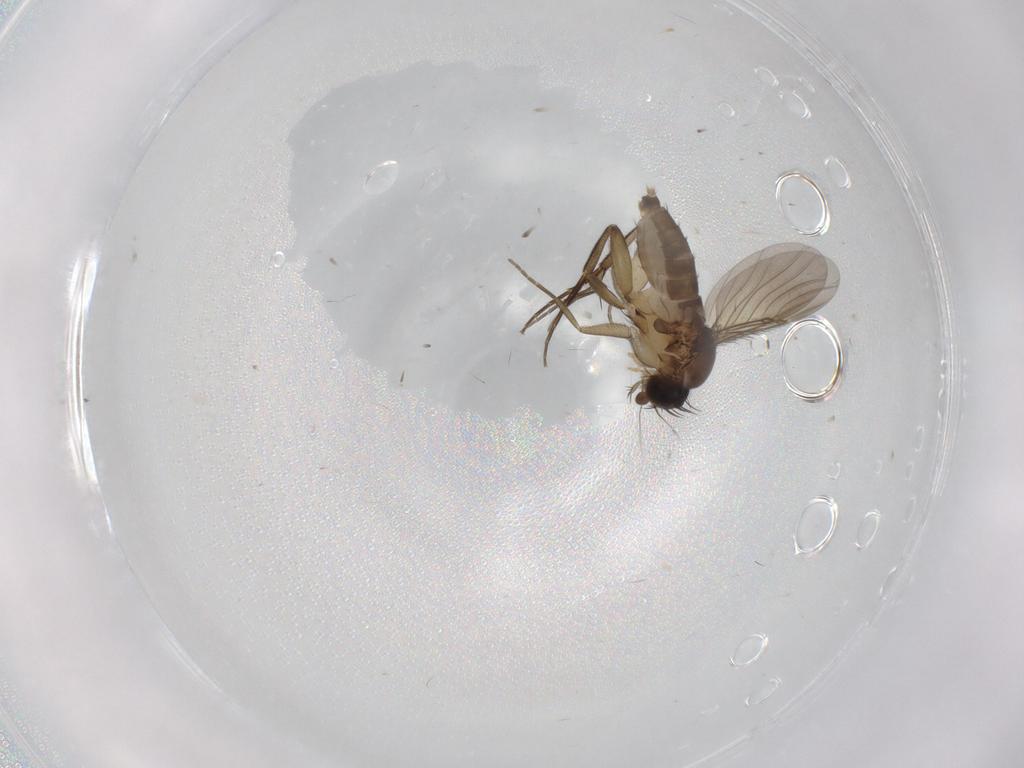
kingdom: Animalia
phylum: Arthropoda
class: Insecta
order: Diptera
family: Phoridae
